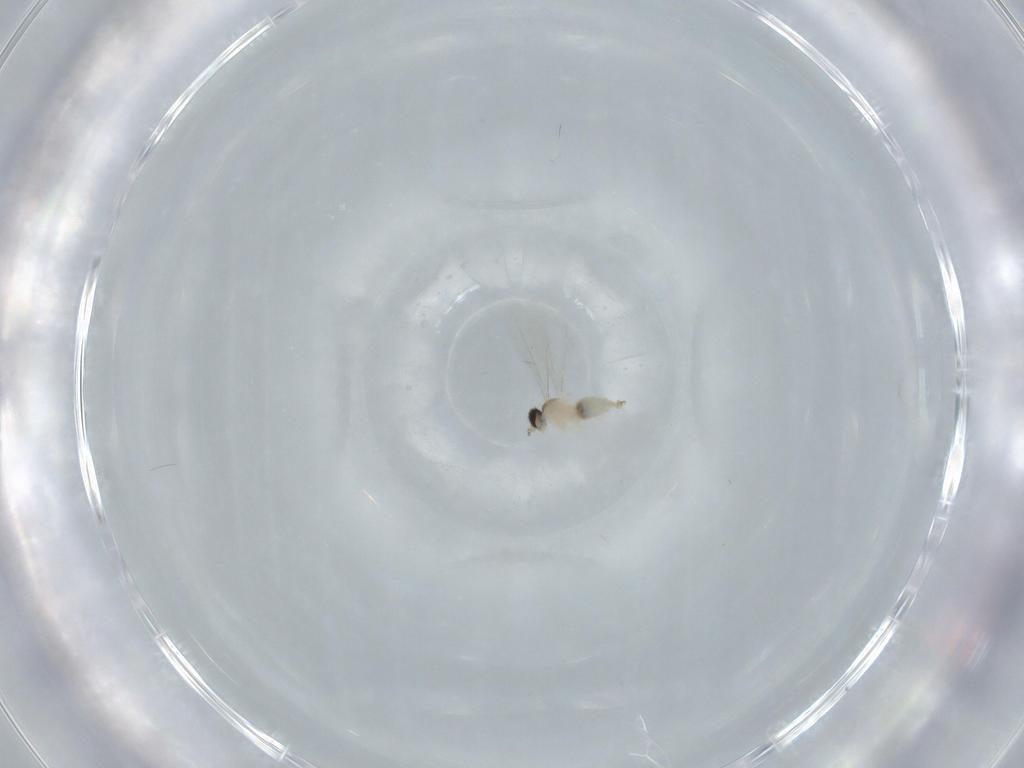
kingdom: Animalia
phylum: Arthropoda
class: Insecta
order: Diptera
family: Cecidomyiidae
